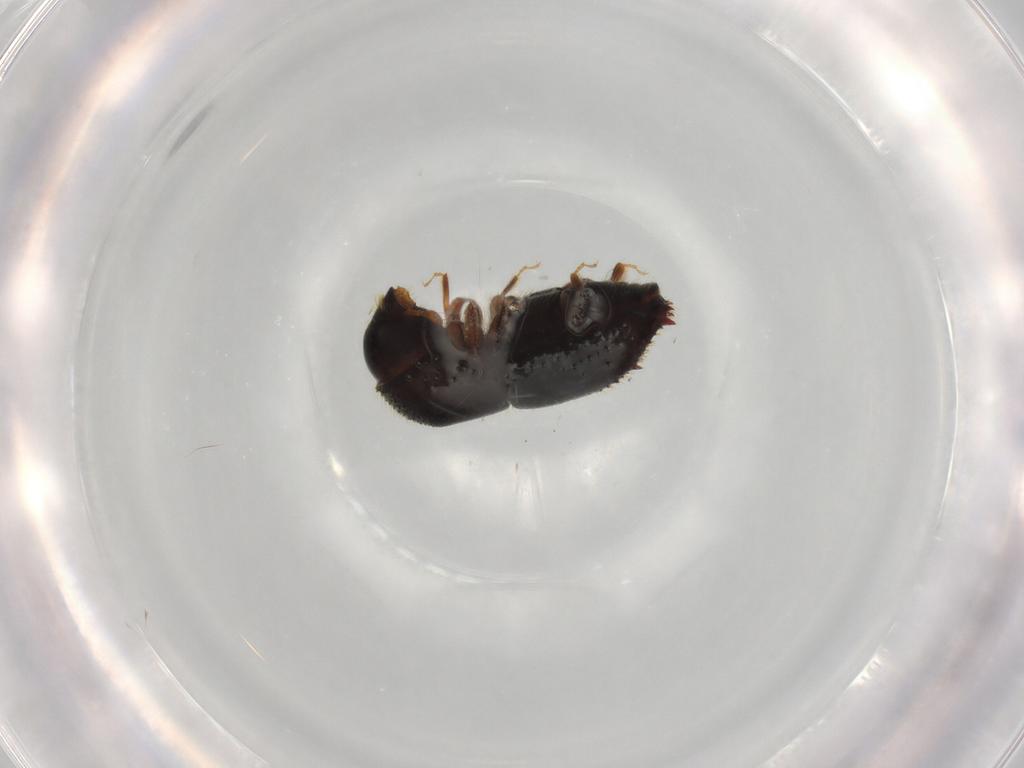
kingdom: Animalia
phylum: Arthropoda
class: Insecta
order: Coleoptera
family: Curculionidae
